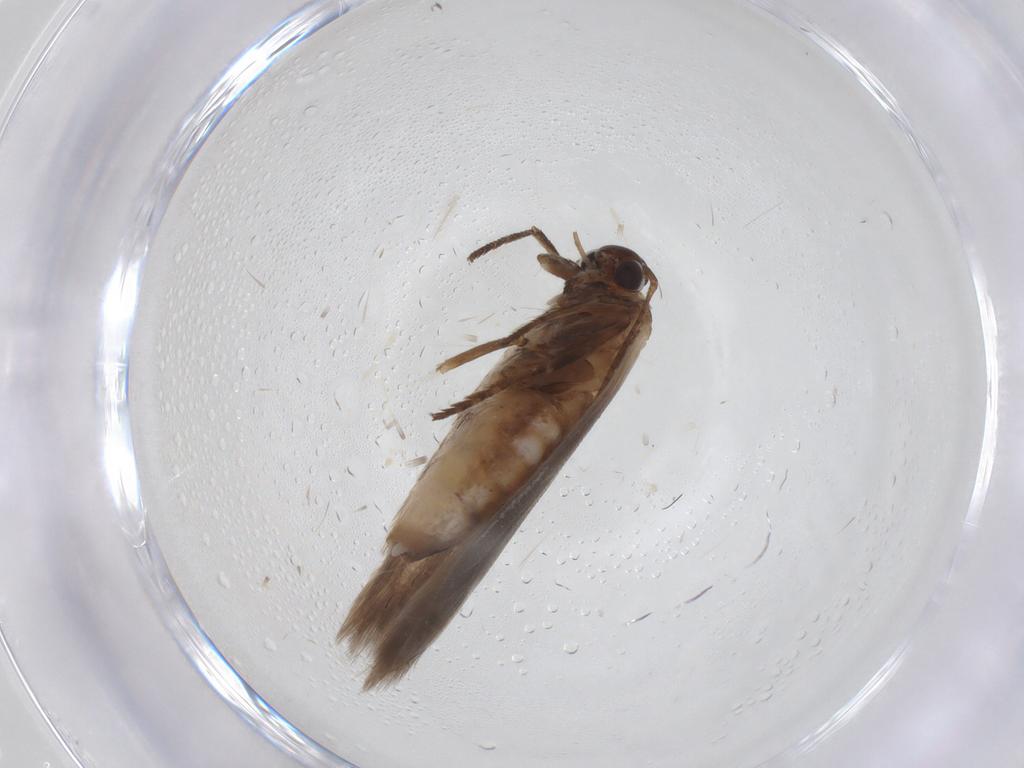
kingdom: Animalia
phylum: Arthropoda
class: Insecta
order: Lepidoptera
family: Cosmopterigidae
